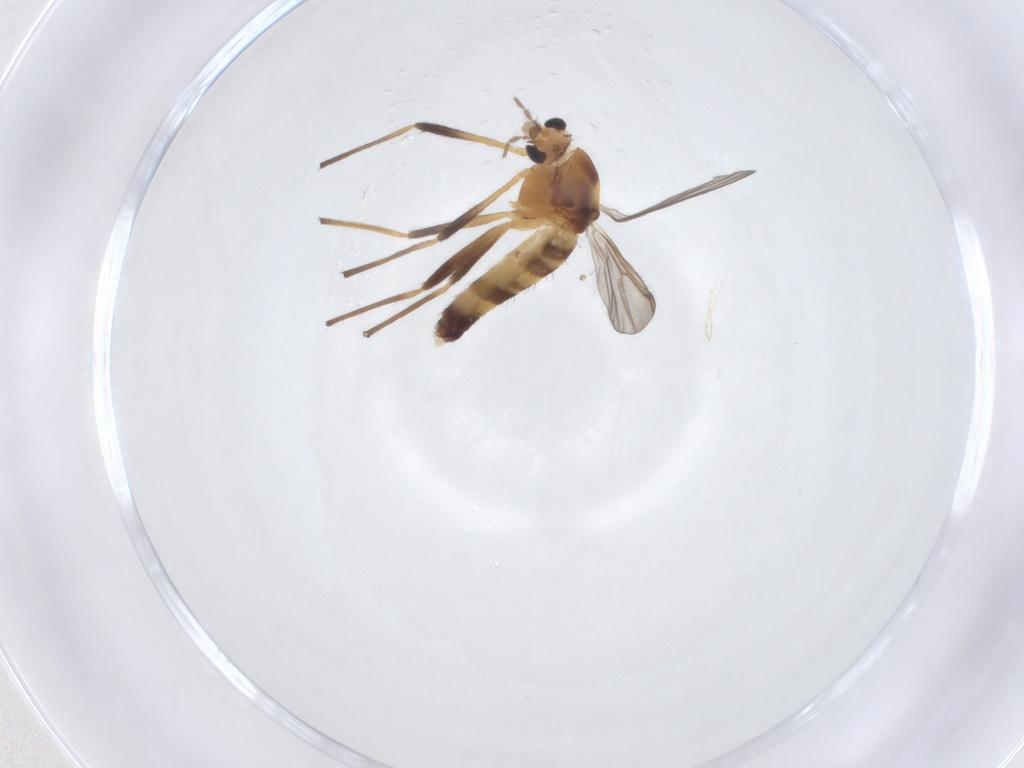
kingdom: Animalia
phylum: Arthropoda
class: Insecta
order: Diptera
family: Chironomidae
